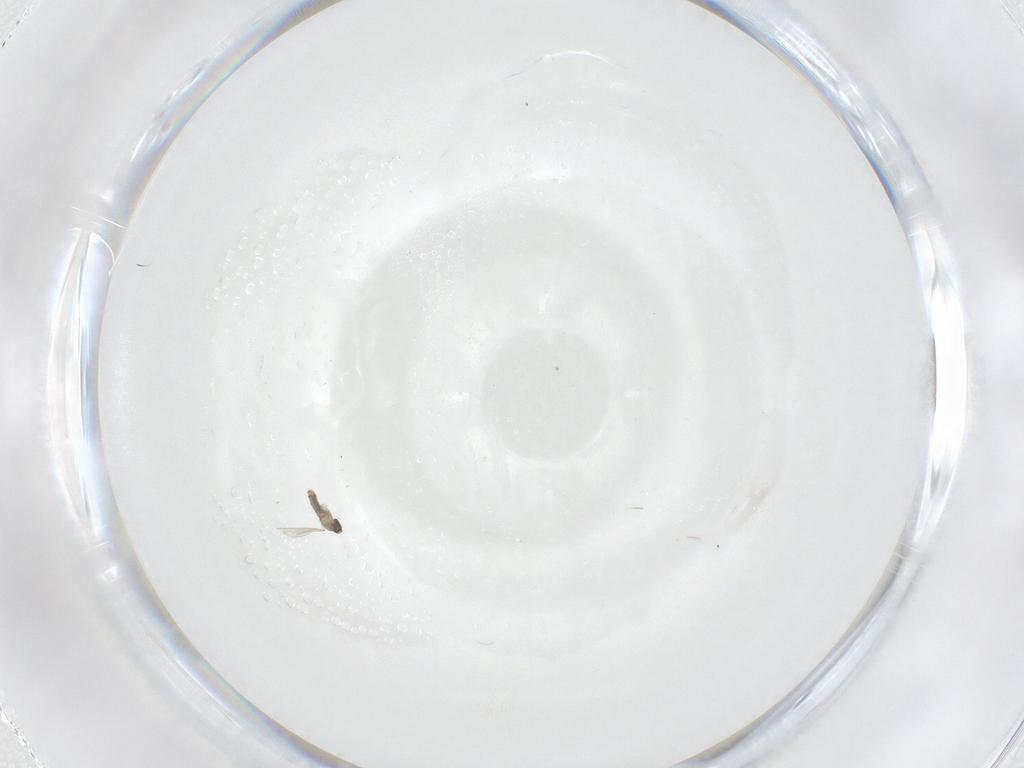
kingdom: Animalia
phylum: Arthropoda
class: Insecta
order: Diptera
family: Cecidomyiidae
